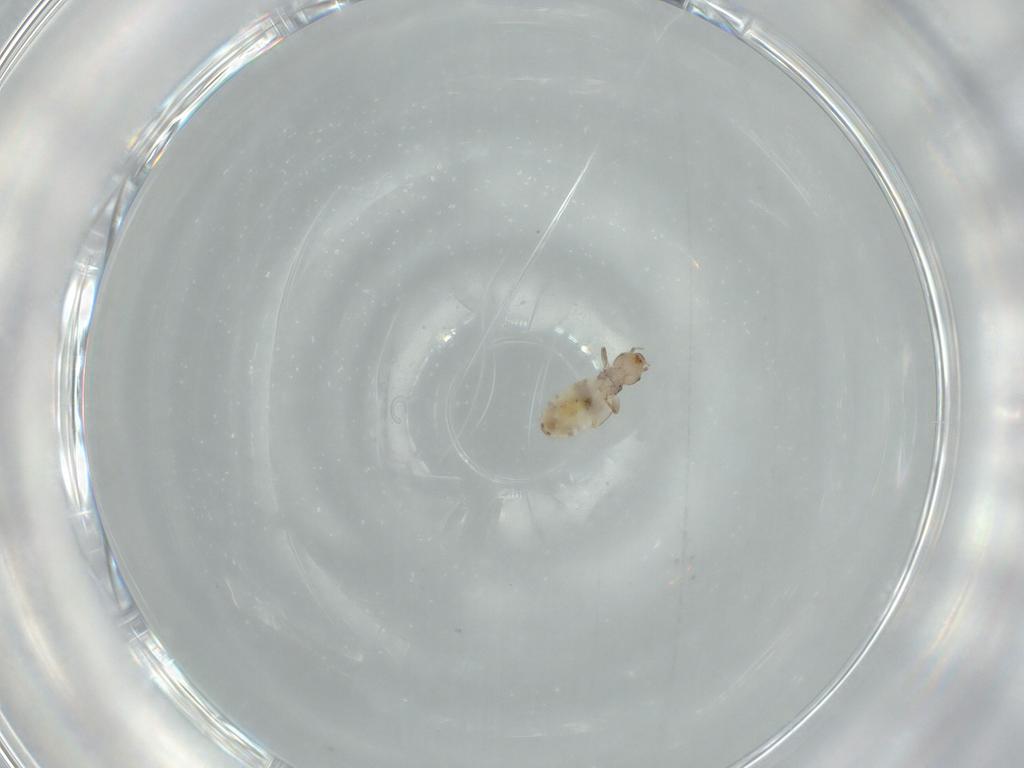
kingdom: Animalia
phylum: Arthropoda
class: Insecta
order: Psocodea
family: Liposcelididae
